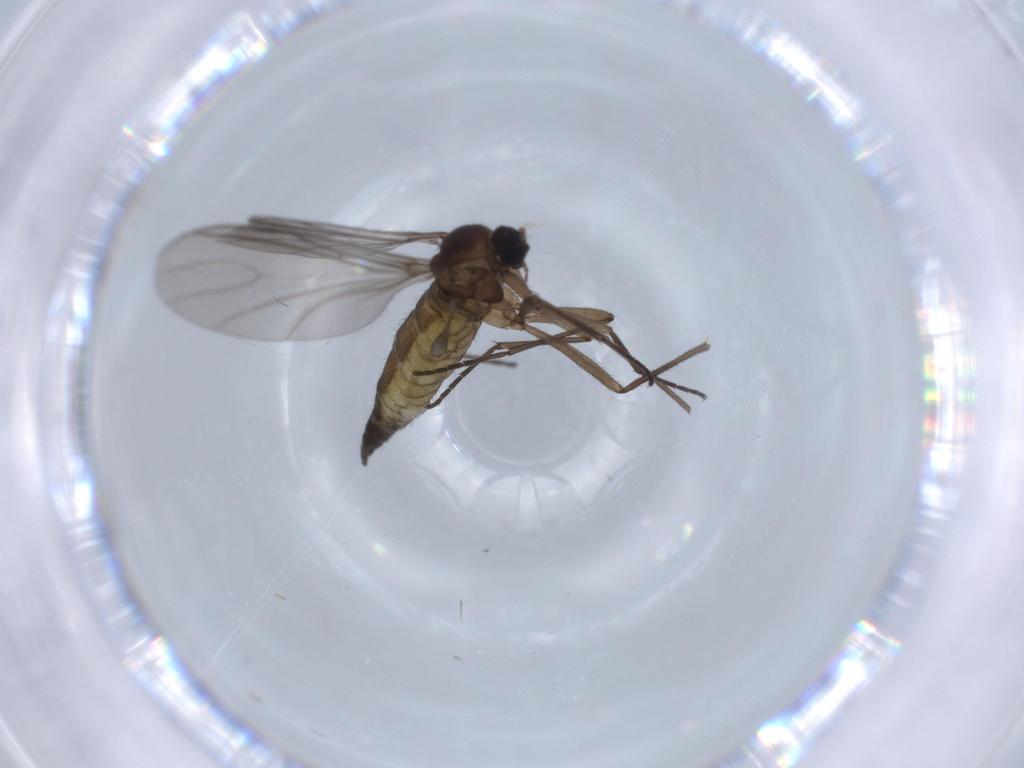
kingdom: Animalia
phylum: Arthropoda
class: Insecta
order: Diptera
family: Sciaridae
